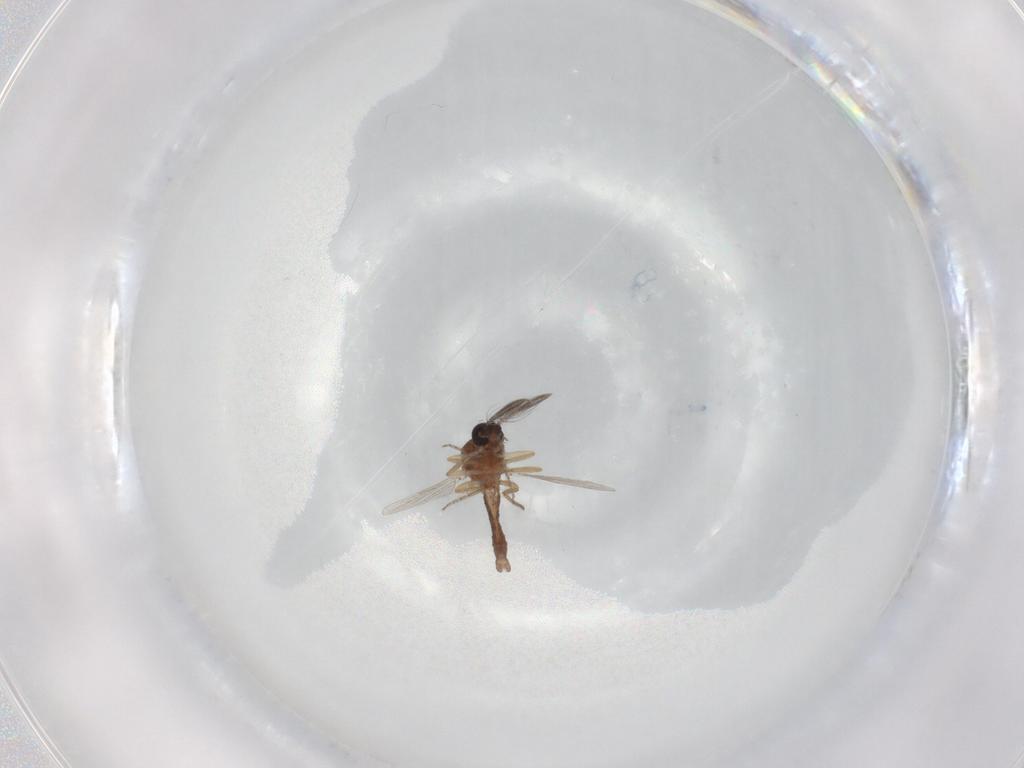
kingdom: Animalia
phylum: Arthropoda
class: Insecta
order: Diptera
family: Ceratopogonidae
